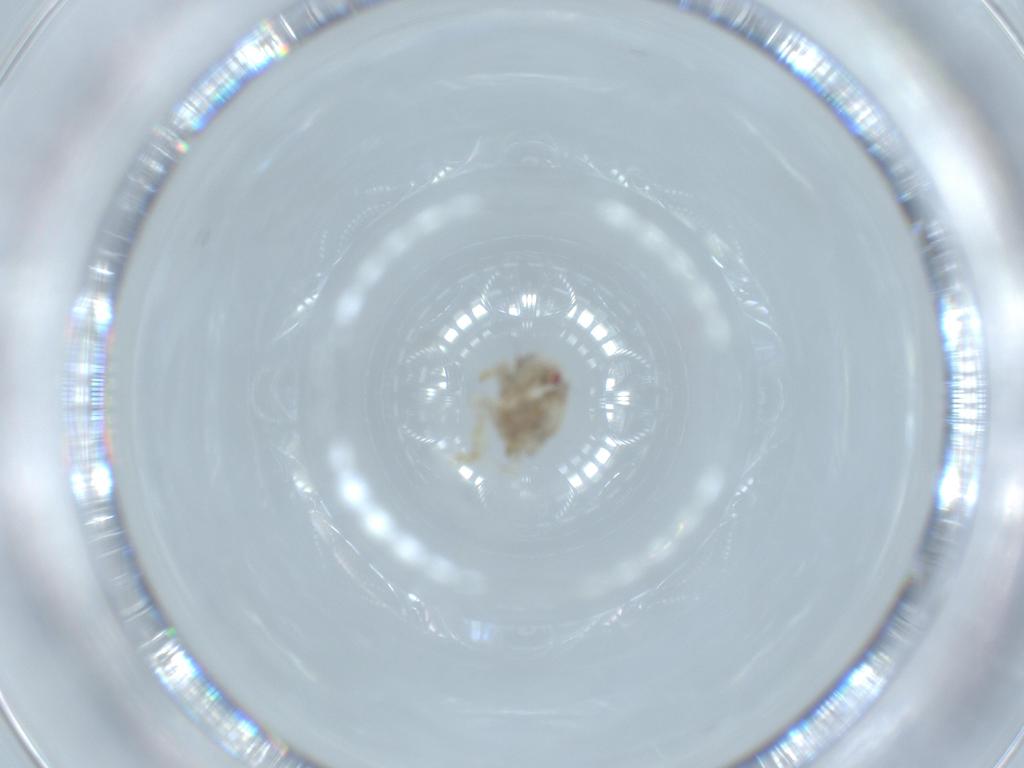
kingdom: Animalia
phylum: Arthropoda
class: Insecta
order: Hemiptera
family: Acanaloniidae
